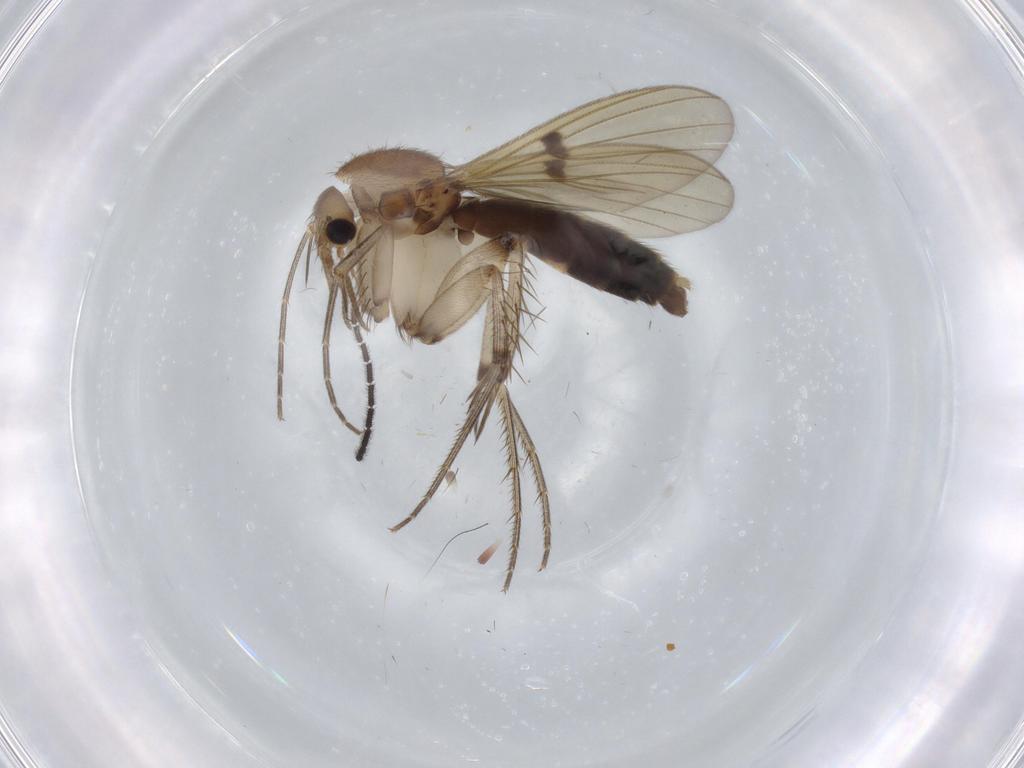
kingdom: Animalia
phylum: Arthropoda
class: Insecta
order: Diptera
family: Mycetophilidae
